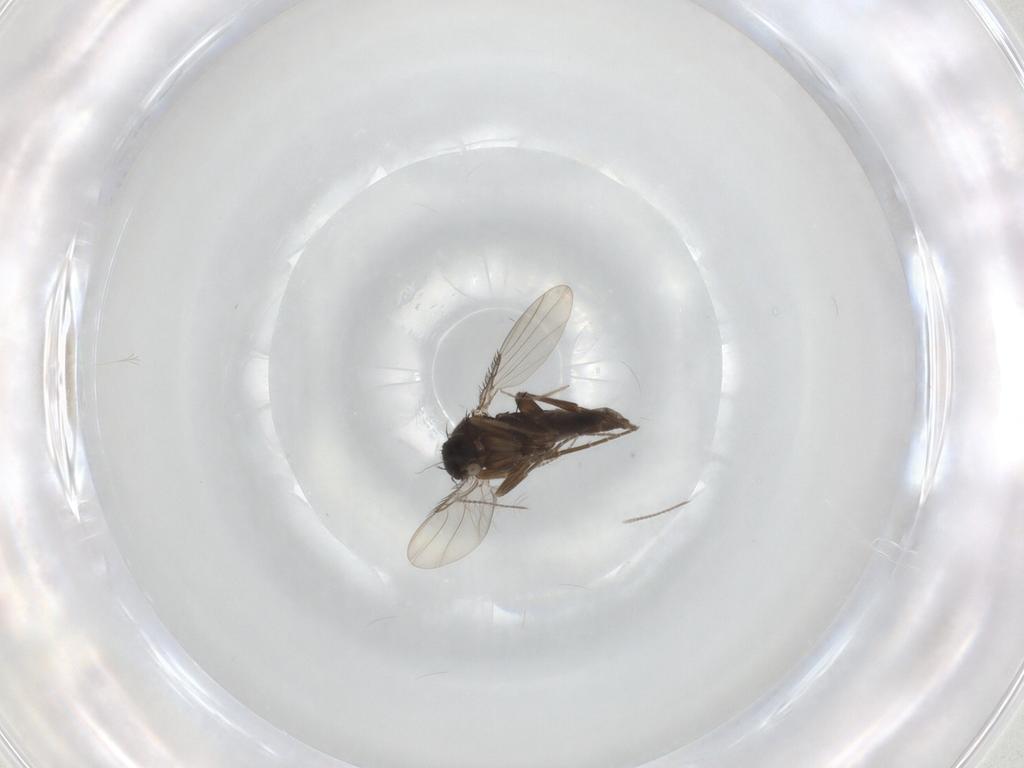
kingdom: Animalia
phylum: Arthropoda
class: Insecta
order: Diptera
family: Phoridae
